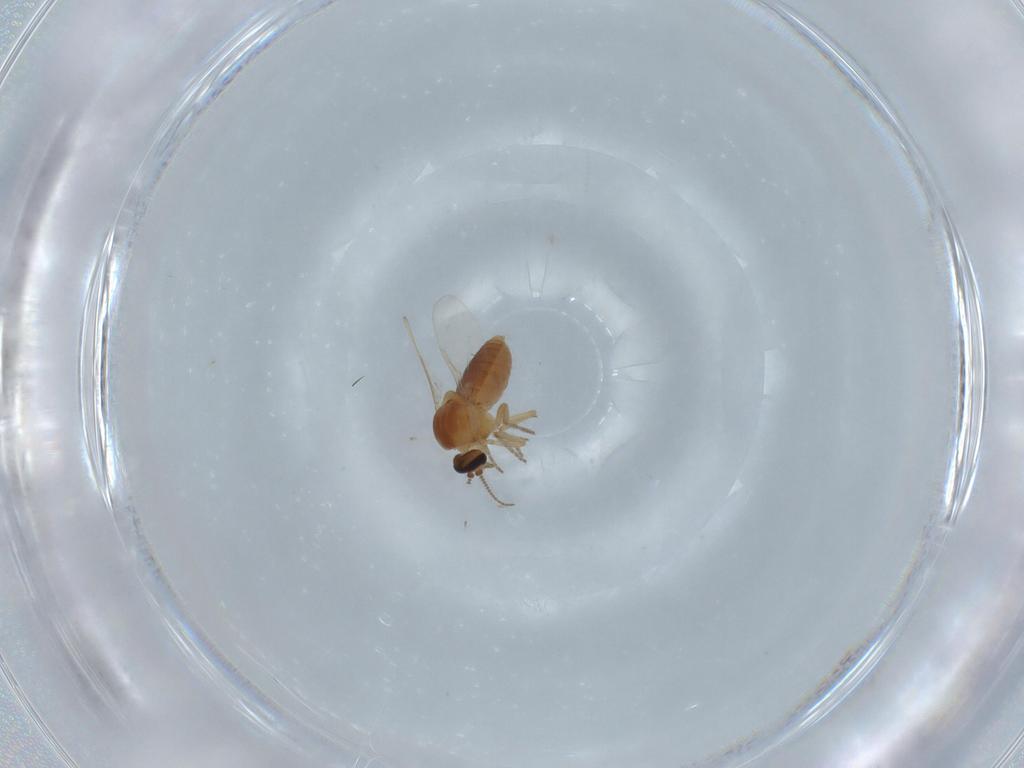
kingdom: Animalia
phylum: Arthropoda
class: Insecta
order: Diptera
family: Ceratopogonidae
